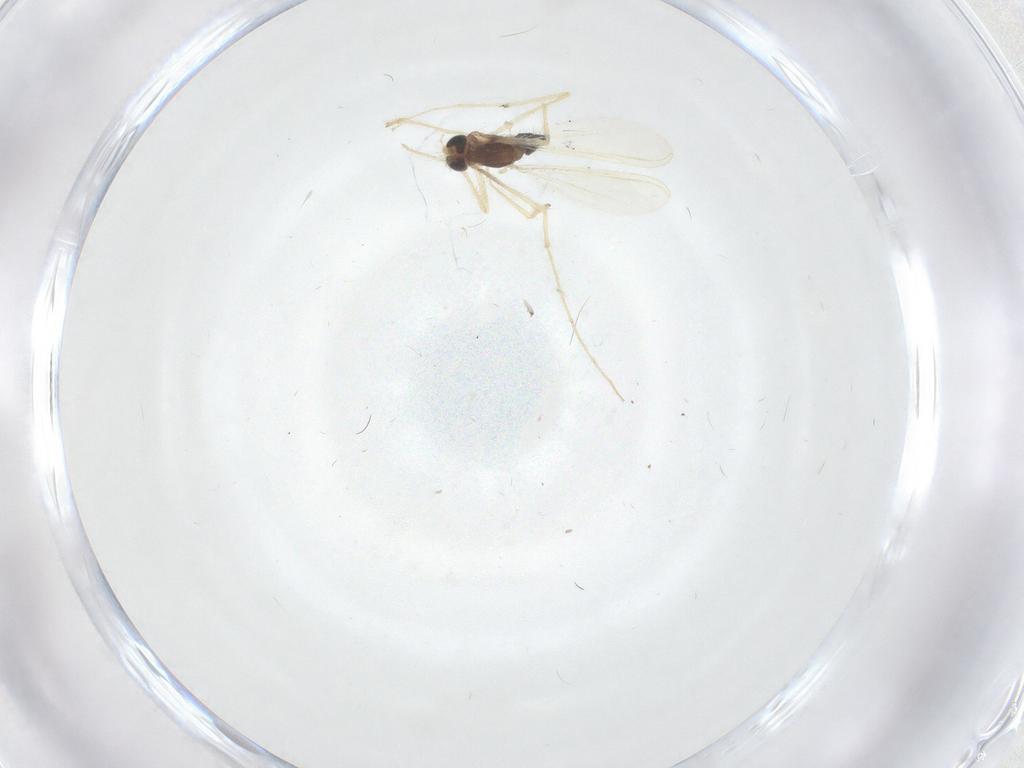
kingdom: Animalia
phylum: Arthropoda
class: Insecta
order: Diptera
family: Chironomidae
